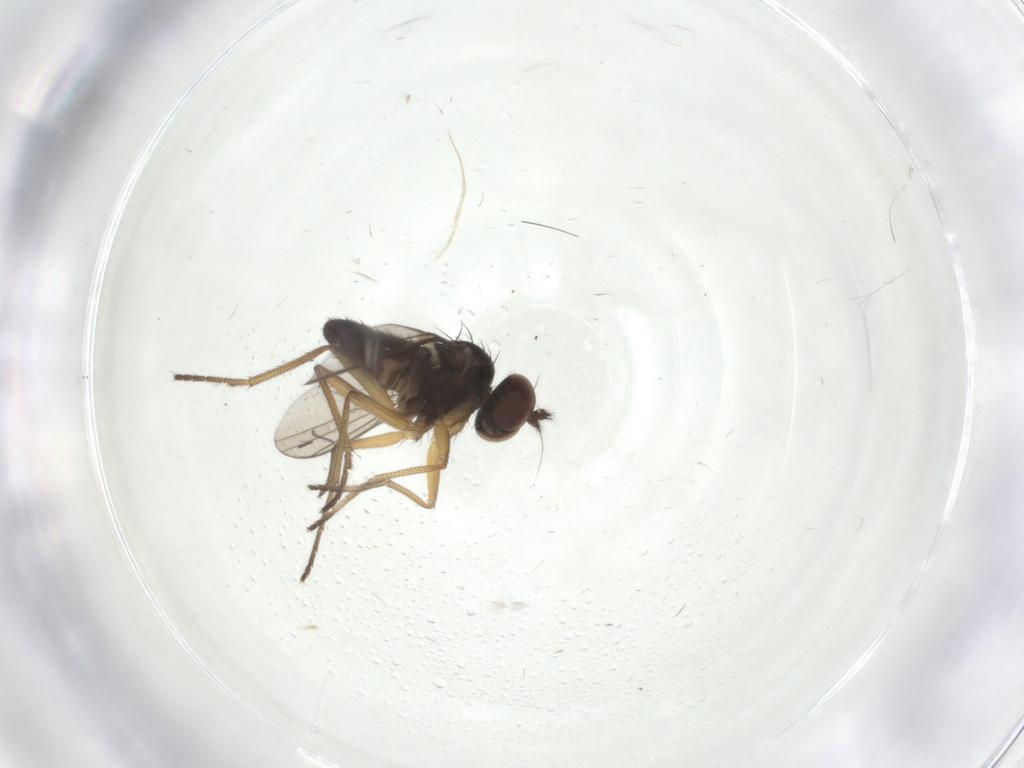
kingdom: Animalia
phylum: Arthropoda
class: Insecta
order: Diptera
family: Dolichopodidae
